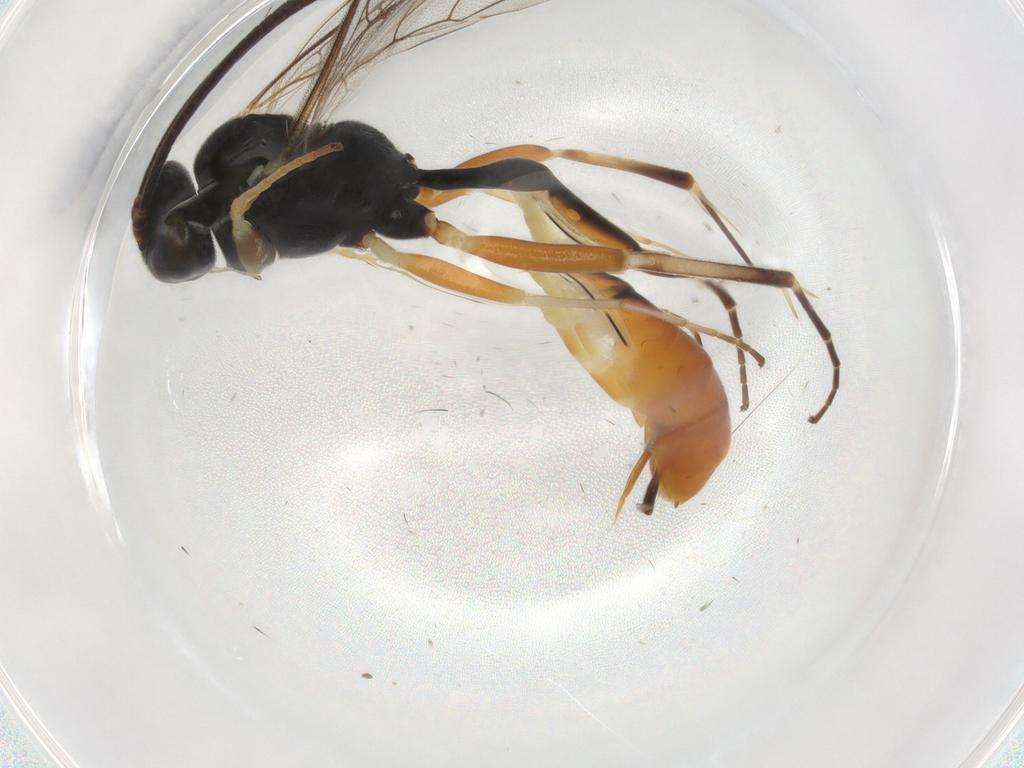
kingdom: Animalia
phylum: Arthropoda
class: Insecta
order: Hymenoptera
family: Ichneumonidae
